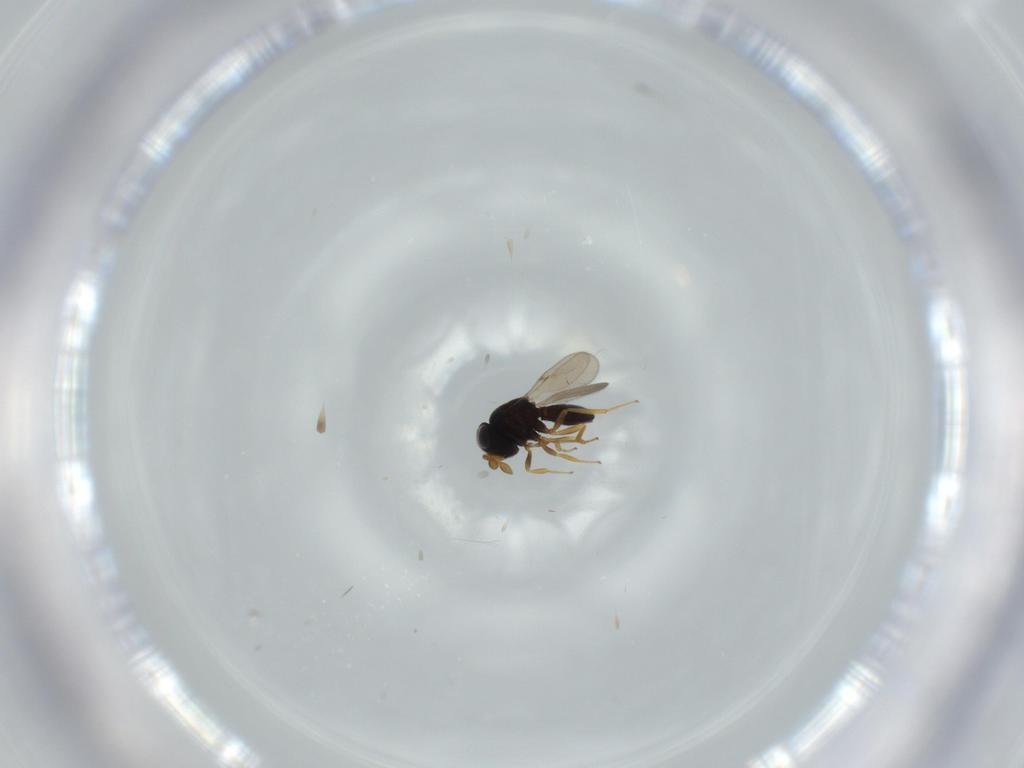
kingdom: Animalia
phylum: Arthropoda
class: Insecta
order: Hymenoptera
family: Scelionidae
